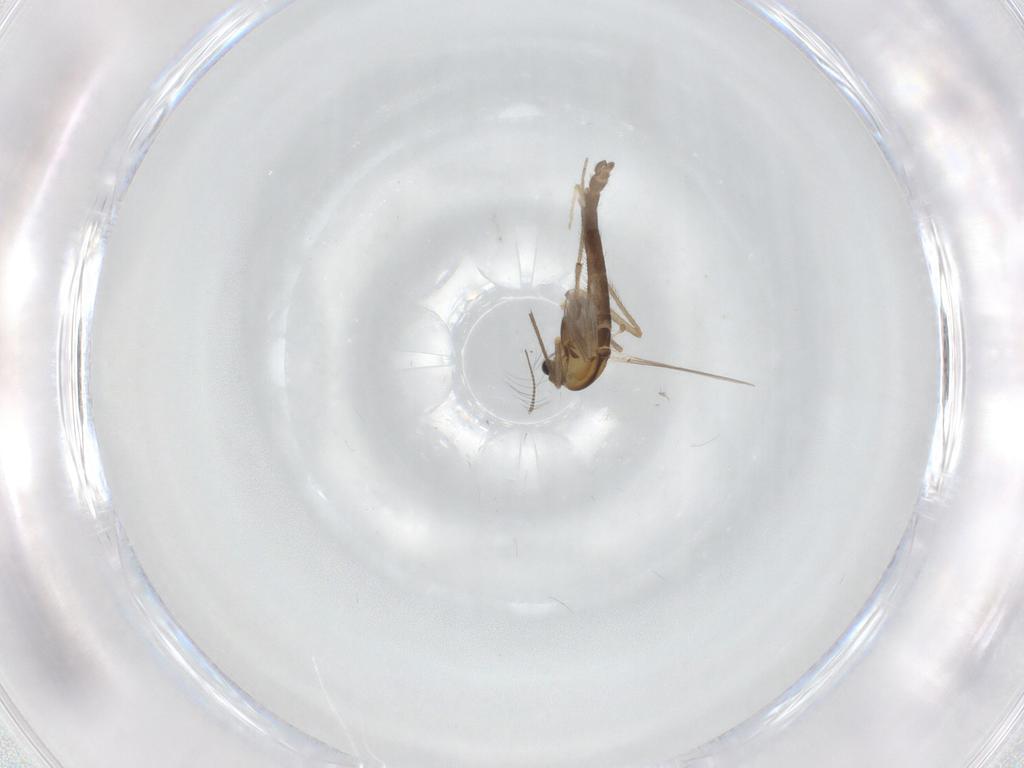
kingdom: Animalia
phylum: Arthropoda
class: Insecta
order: Diptera
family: Chironomidae
